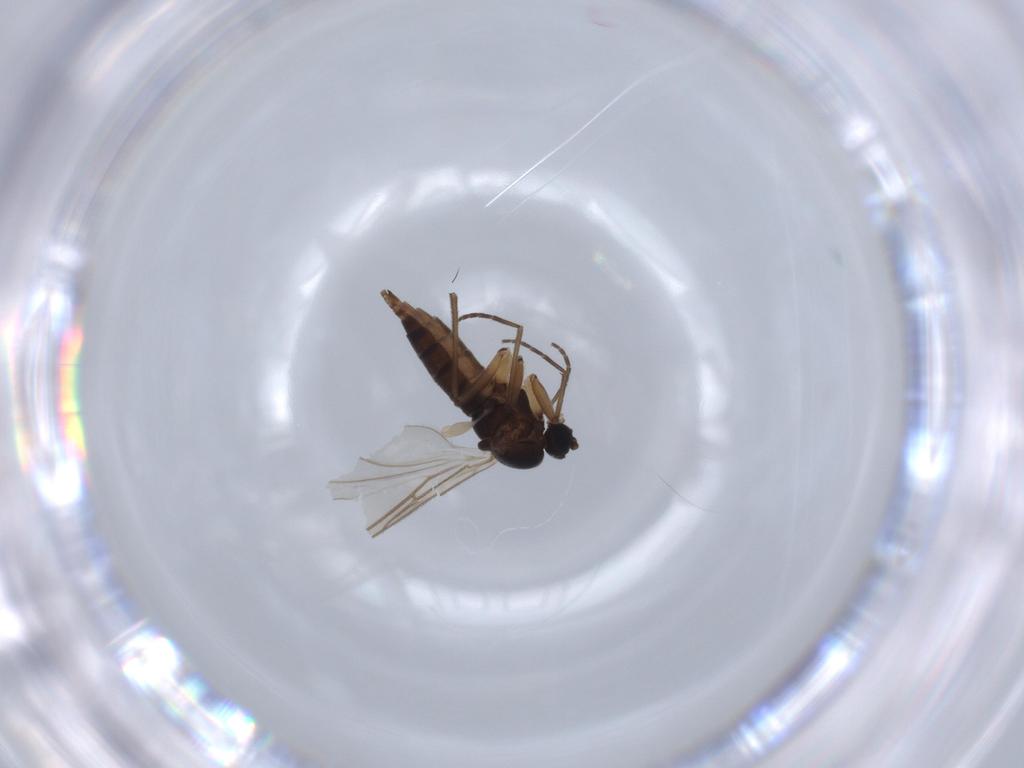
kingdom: Animalia
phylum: Arthropoda
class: Insecta
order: Diptera
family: Sciaridae
